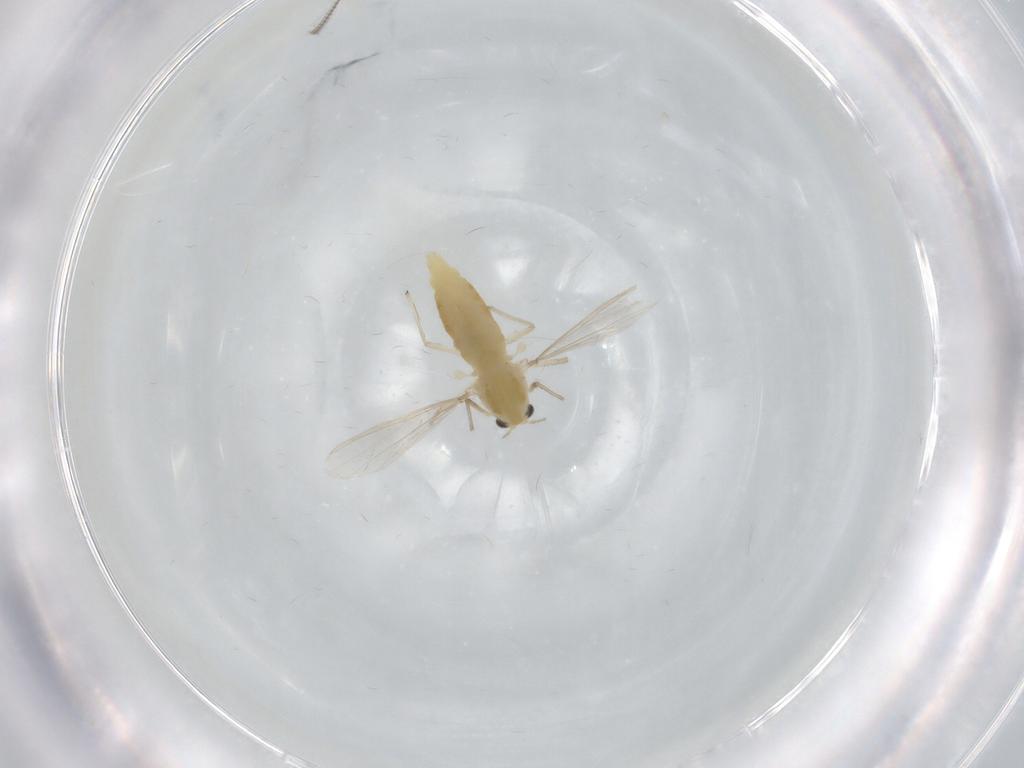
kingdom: Animalia
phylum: Arthropoda
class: Insecta
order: Diptera
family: Chironomidae
